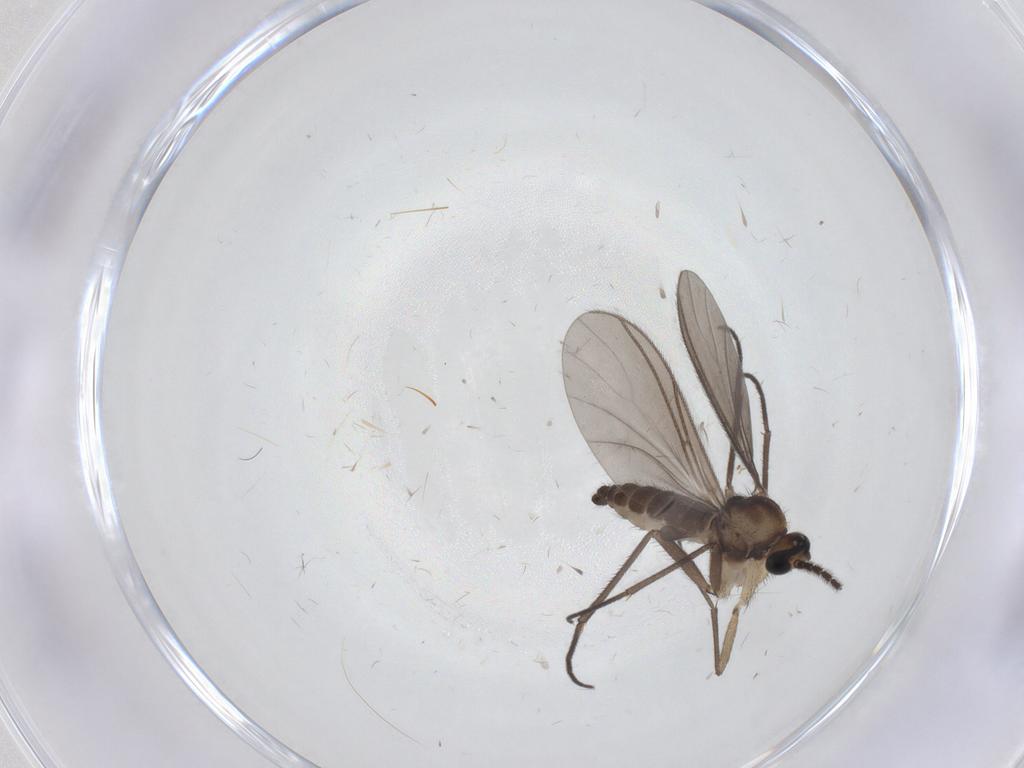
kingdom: Animalia
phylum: Arthropoda
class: Insecta
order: Diptera
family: Sciaridae
